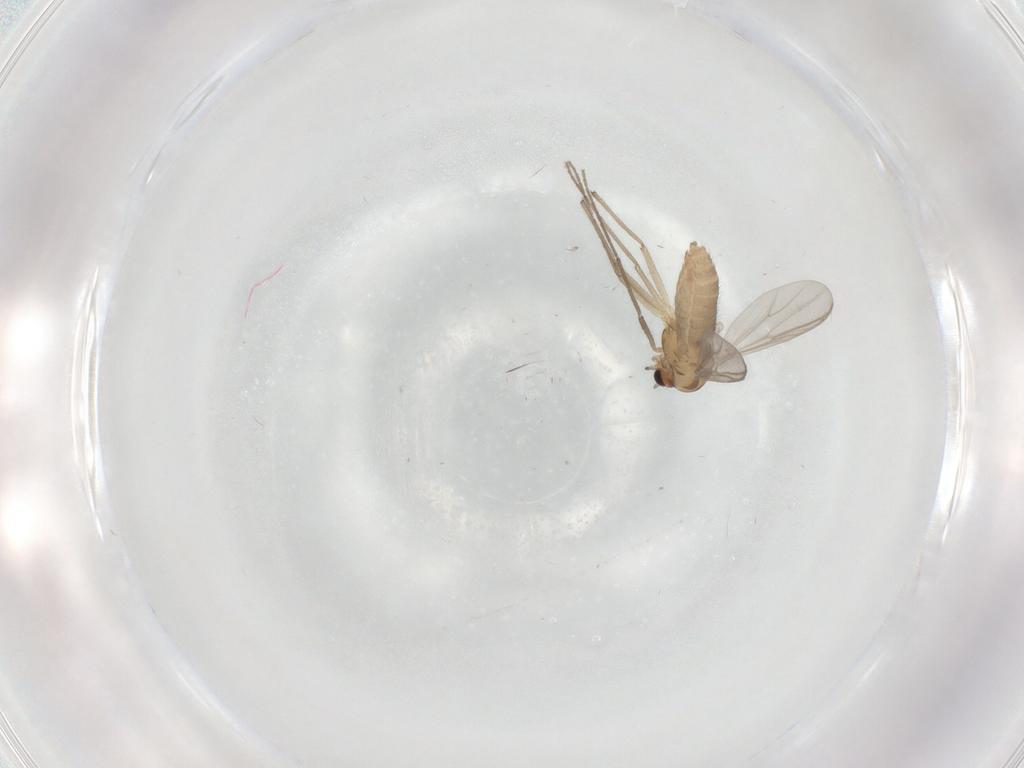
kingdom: Animalia
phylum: Arthropoda
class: Insecta
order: Diptera
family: Chironomidae
